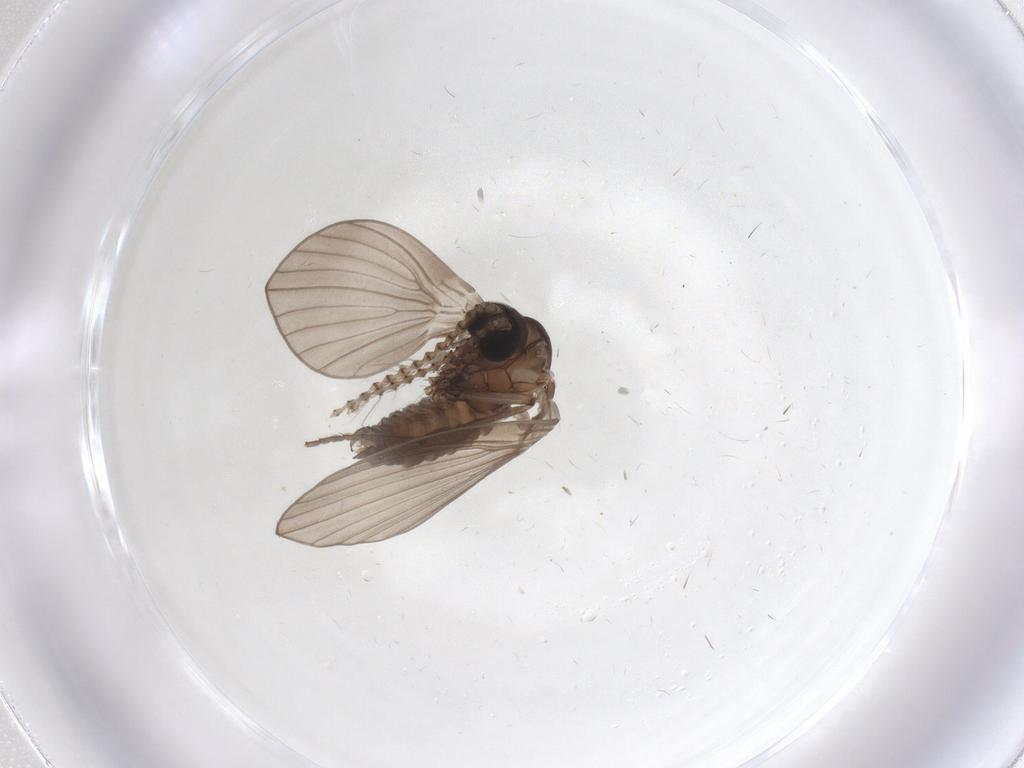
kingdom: Animalia
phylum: Arthropoda
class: Insecta
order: Diptera
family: Psychodidae
